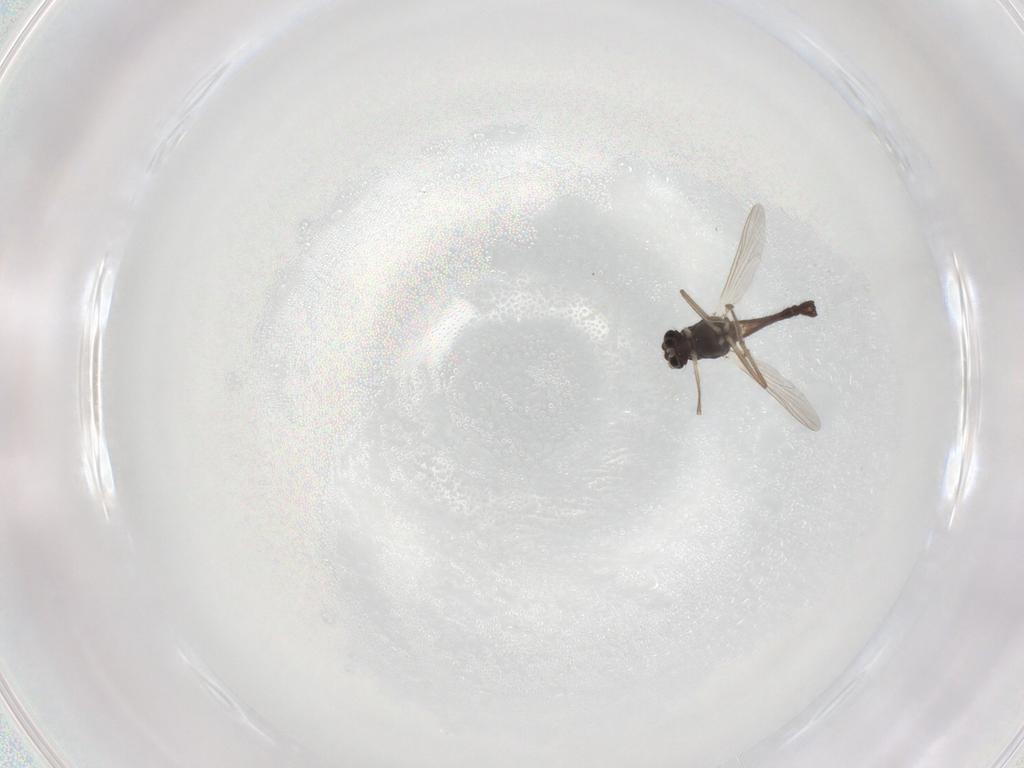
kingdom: Animalia
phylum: Arthropoda
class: Insecta
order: Diptera
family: Chironomidae
